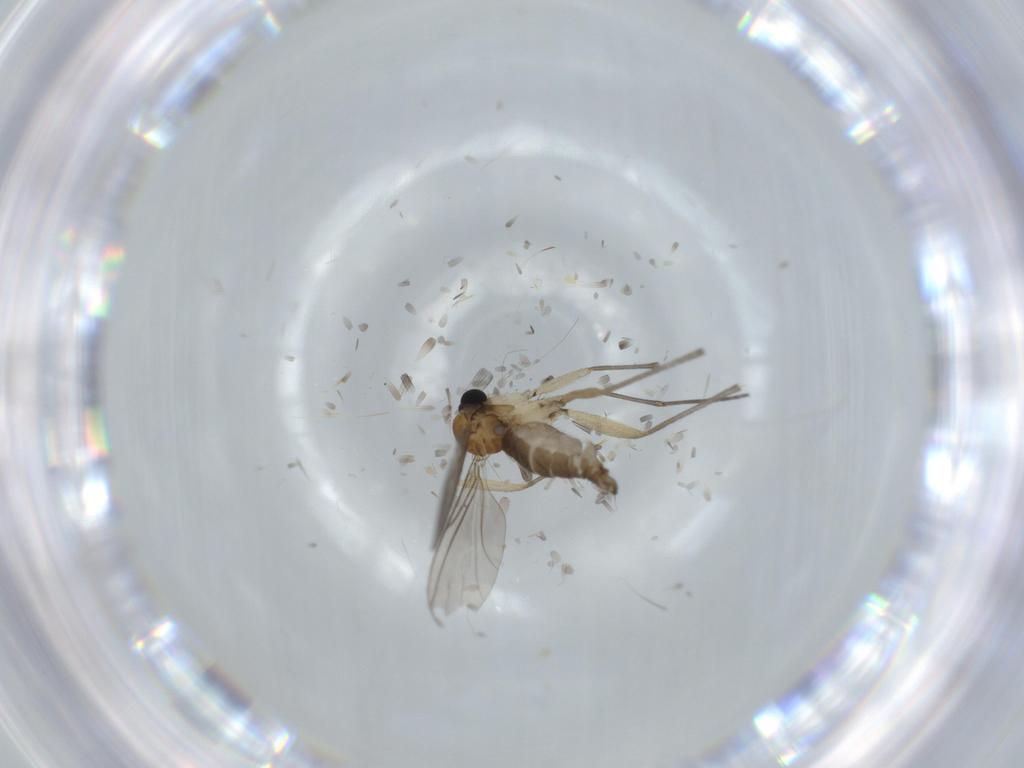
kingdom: Animalia
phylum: Arthropoda
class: Insecta
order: Diptera
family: Sciaridae
